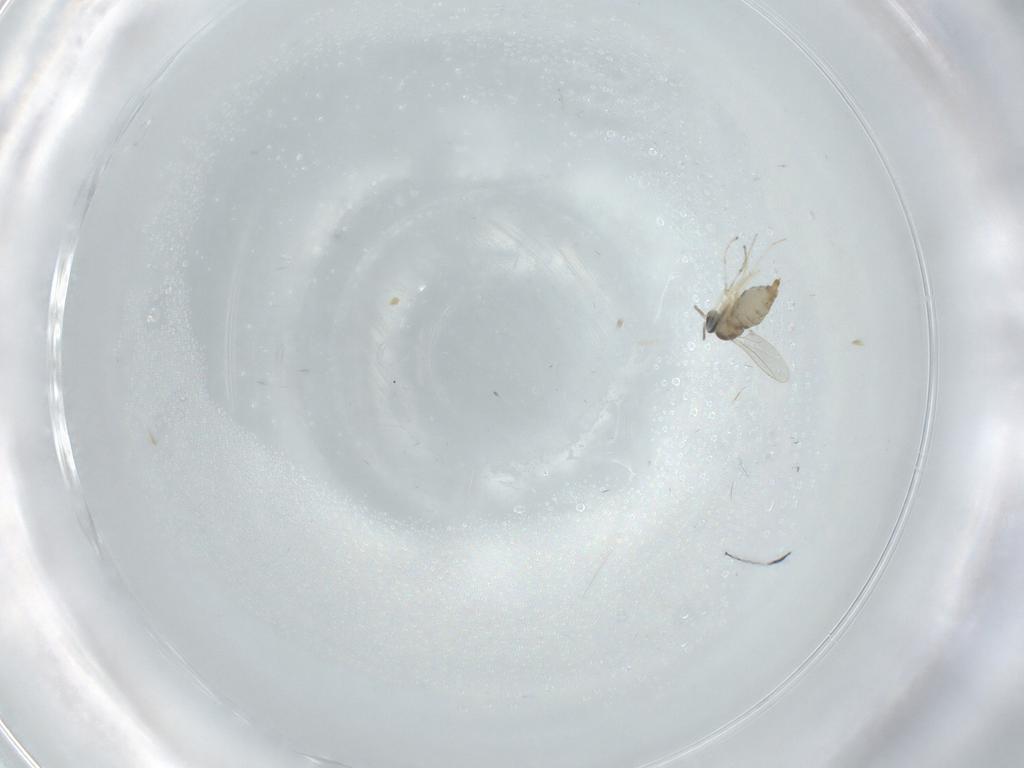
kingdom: Animalia
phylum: Arthropoda
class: Insecta
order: Diptera
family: Cecidomyiidae
